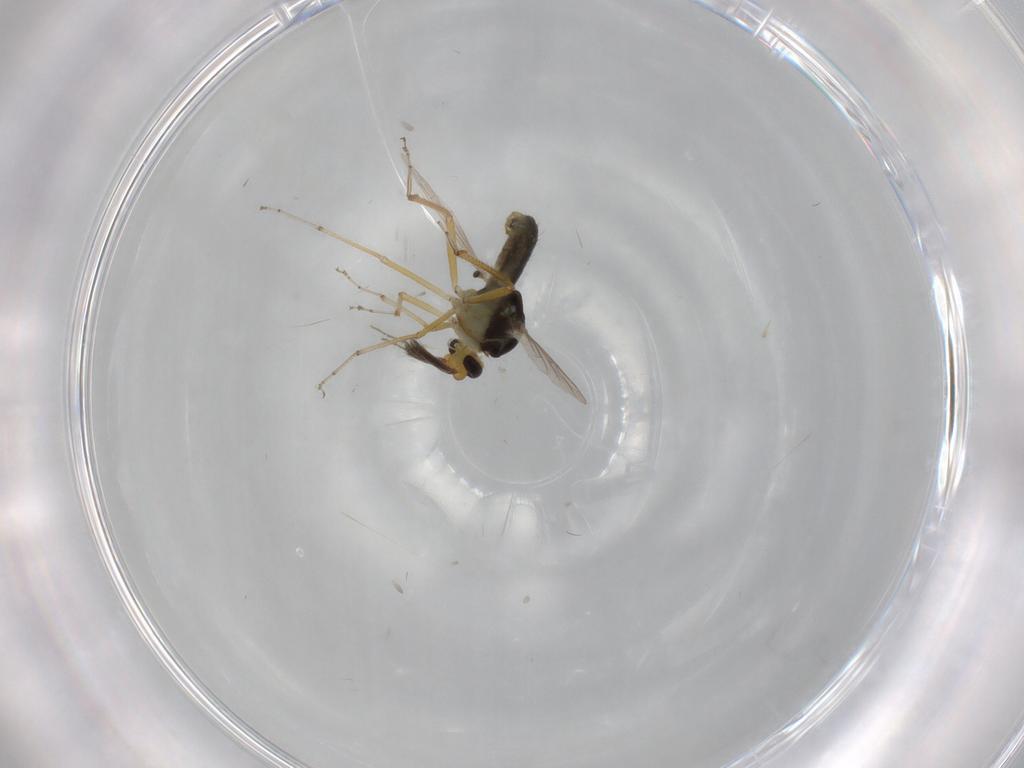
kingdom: Animalia
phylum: Arthropoda
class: Insecta
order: Diptera
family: Ceratopogonidae
